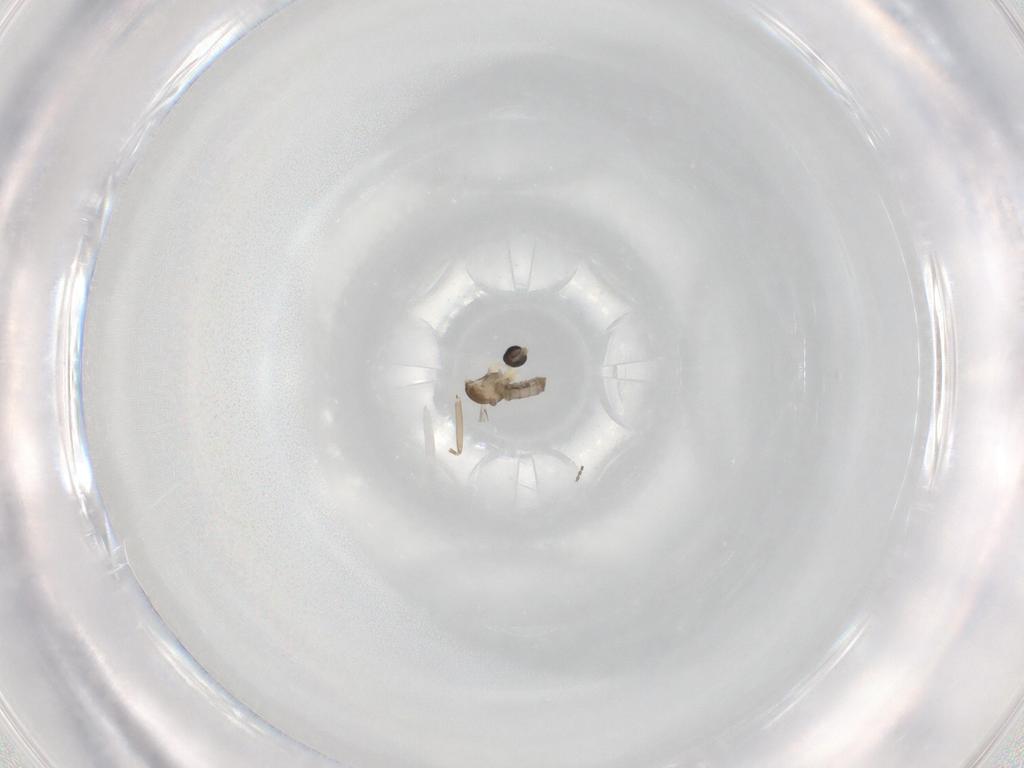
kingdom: Animalia
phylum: Arthropoda
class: Insecta
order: Diptera
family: Cecidomyiidae
